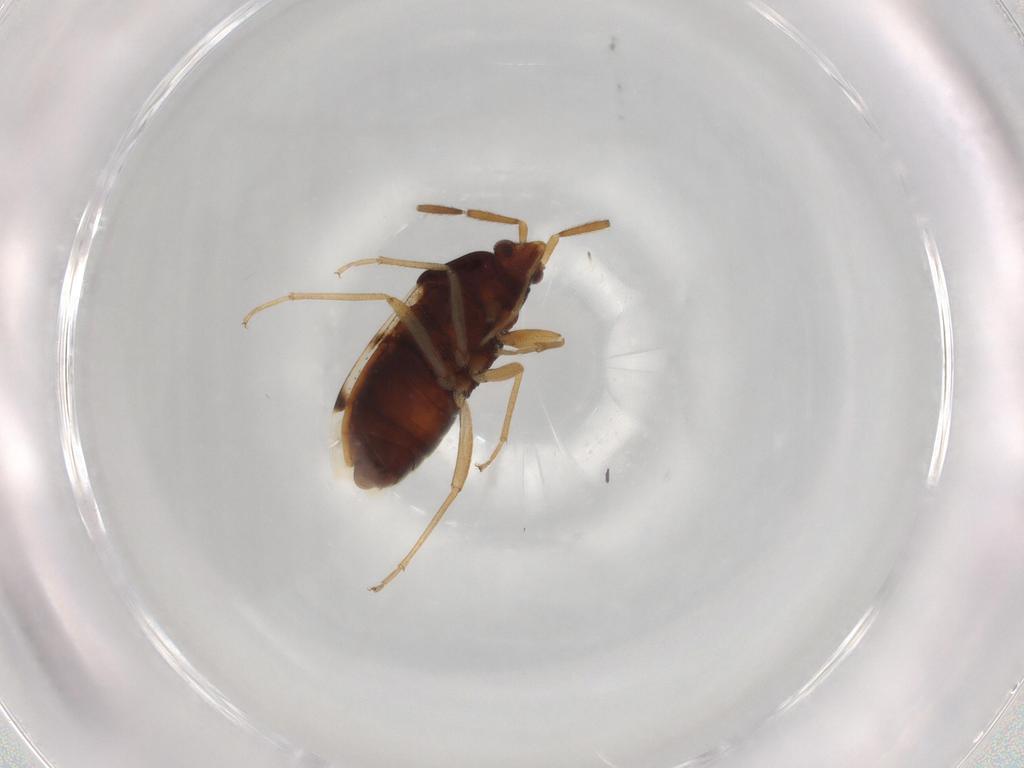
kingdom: Animalia
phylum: Arthropoda
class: Insecta
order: Hemiptera
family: Rhyparochromidae
